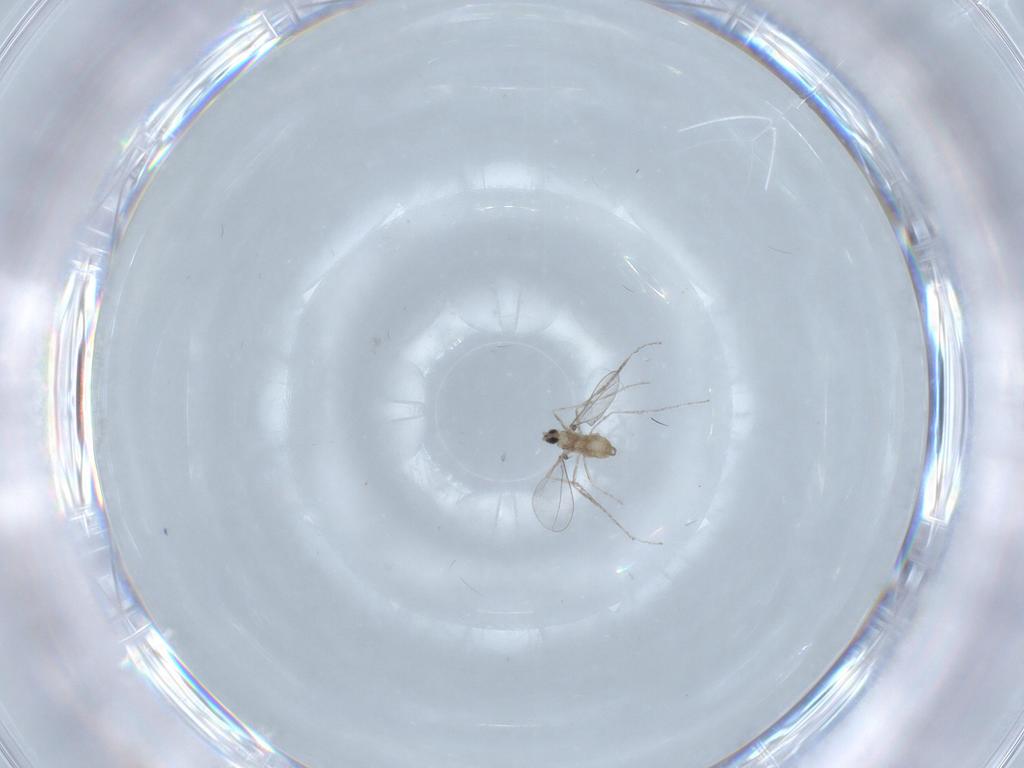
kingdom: Animalia
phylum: Arthropoda
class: Insecta
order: Diptera
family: Cecidomyiidae
